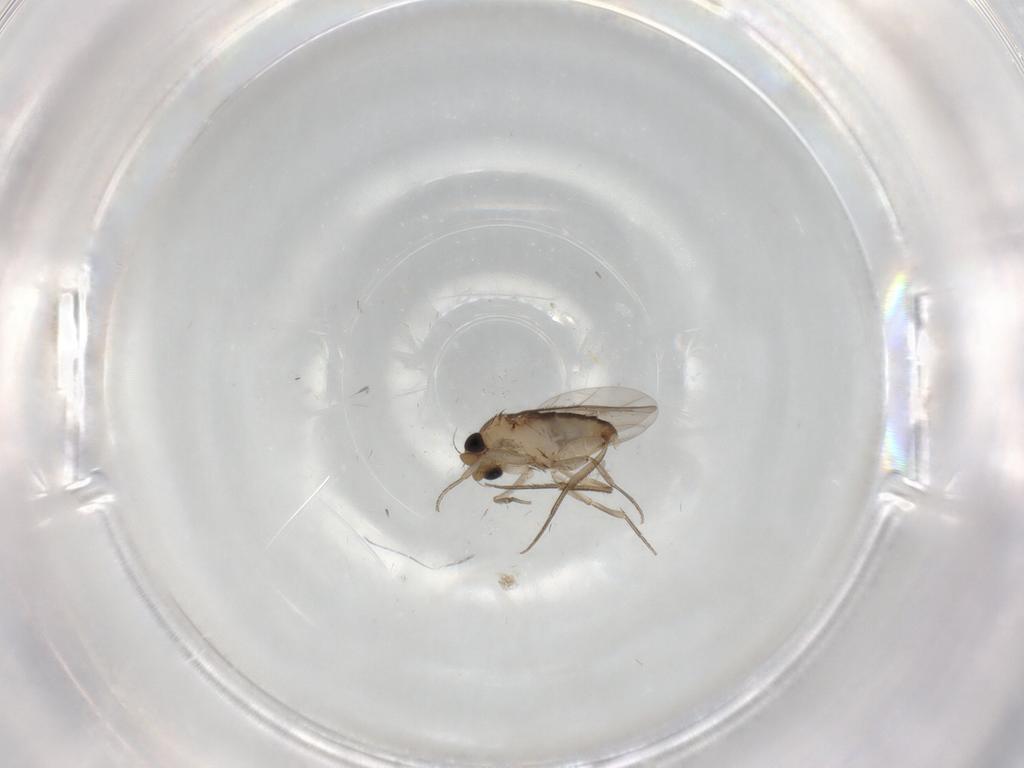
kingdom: Animalia
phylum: Arthropoda
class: Insecta
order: Diptera
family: Phoridae
